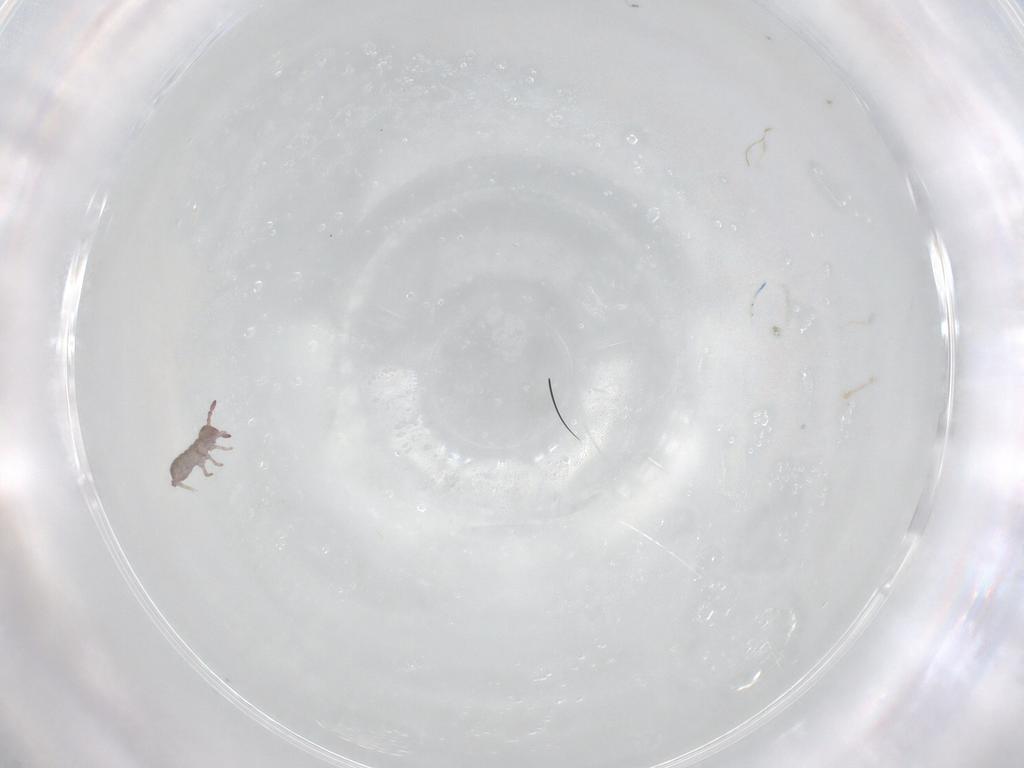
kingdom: Animalia
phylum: Arthropoda
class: Collembola
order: Entomobryomorpha
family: Isotomidae
